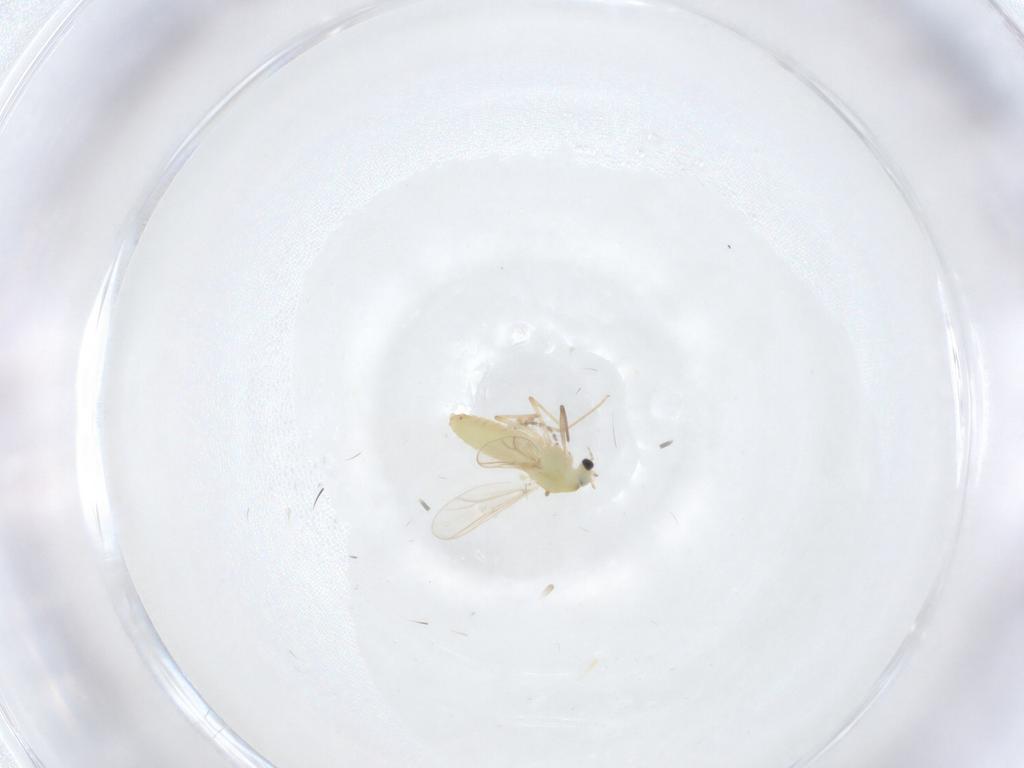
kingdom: Animalia
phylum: Arthropoda
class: Insecta
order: Diptera
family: Chironomidae
